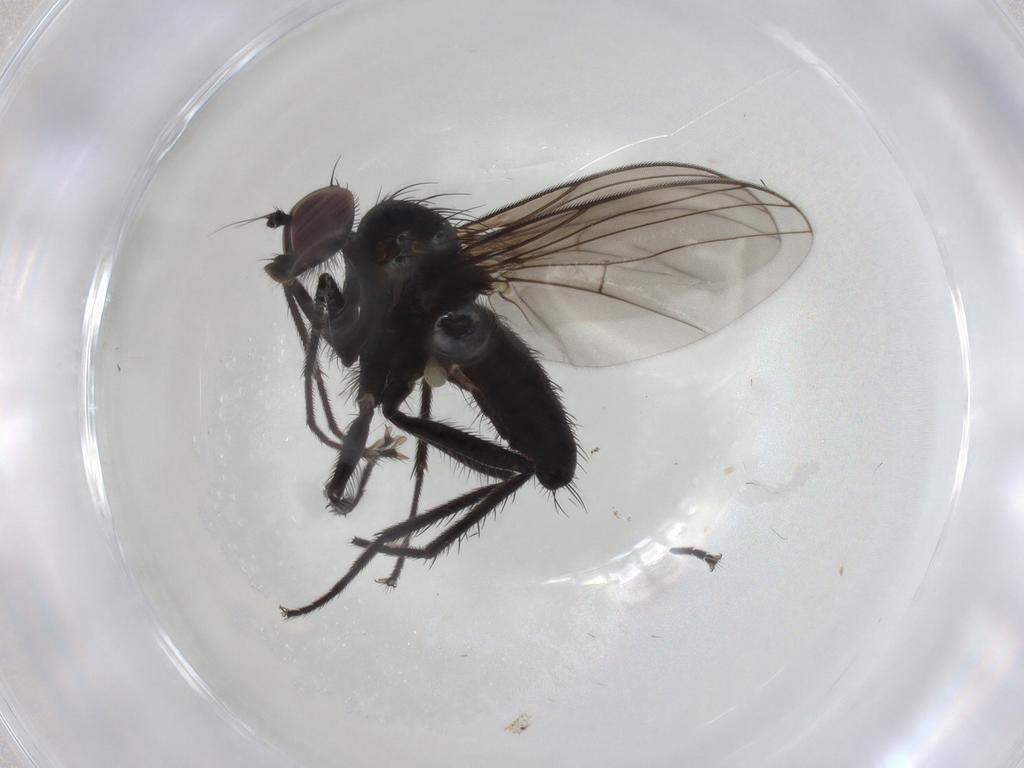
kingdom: Animalia
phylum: Arthropoda
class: Insecta
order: Diptera
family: Dolichopodidae
